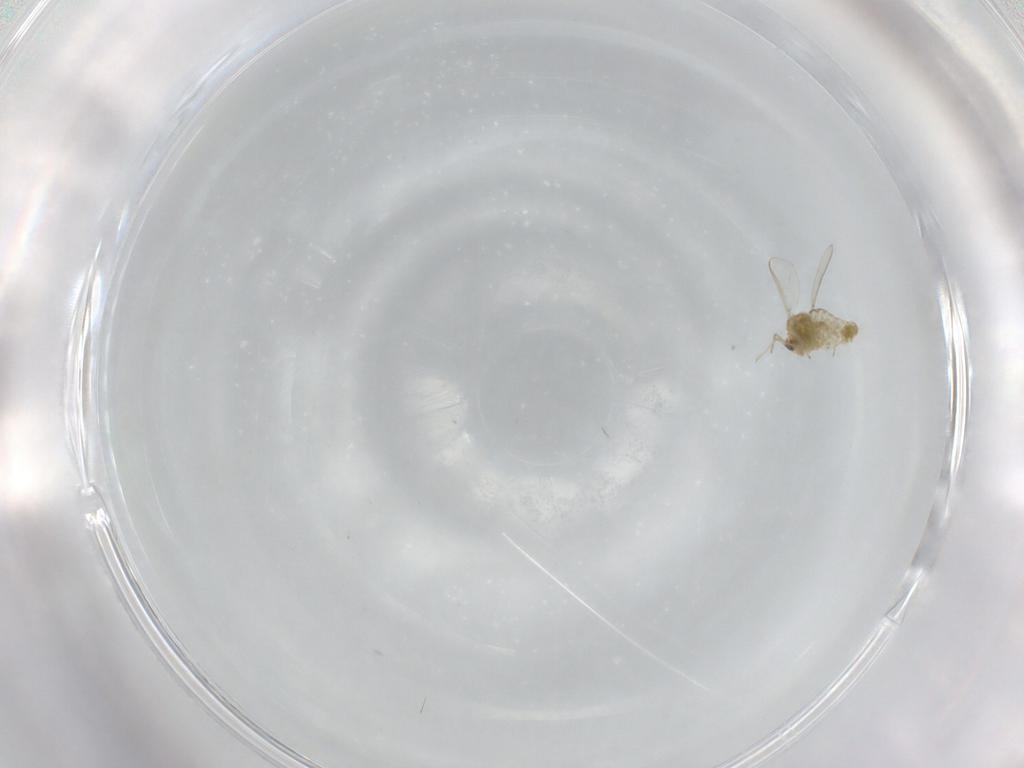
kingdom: Animalia
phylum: Arthropoda
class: Insecta
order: Diptera
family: Chironomidae
